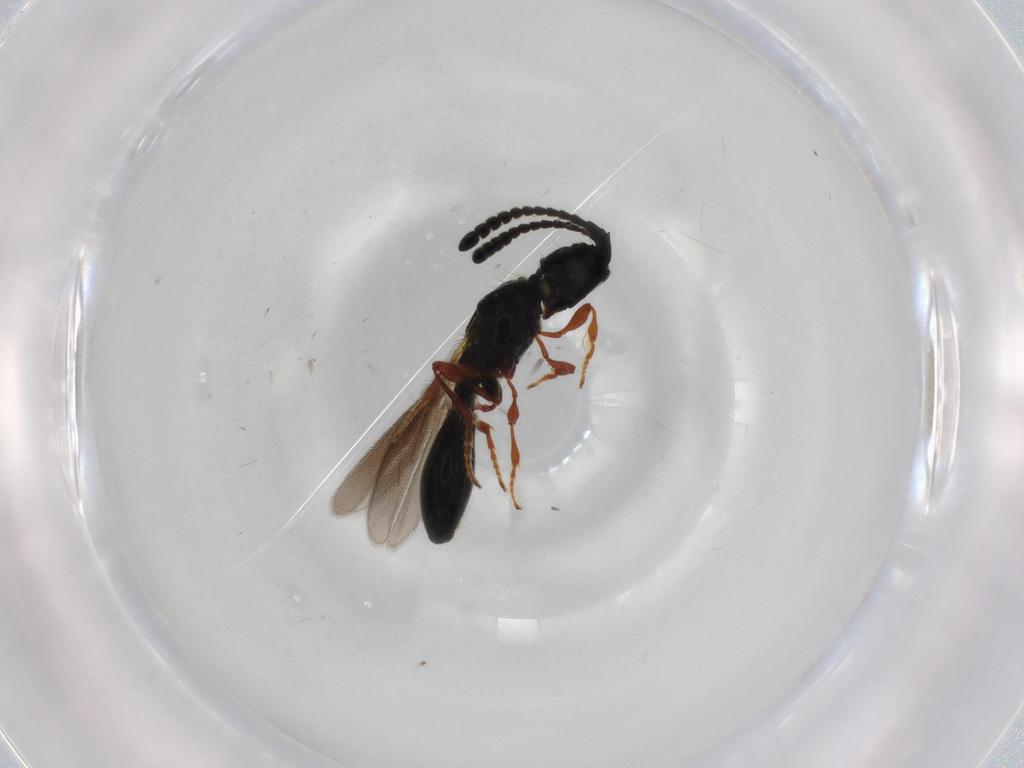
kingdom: Animalia
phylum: Arthropoda
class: Insecta
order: Hymenoptera
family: Diapriidae
